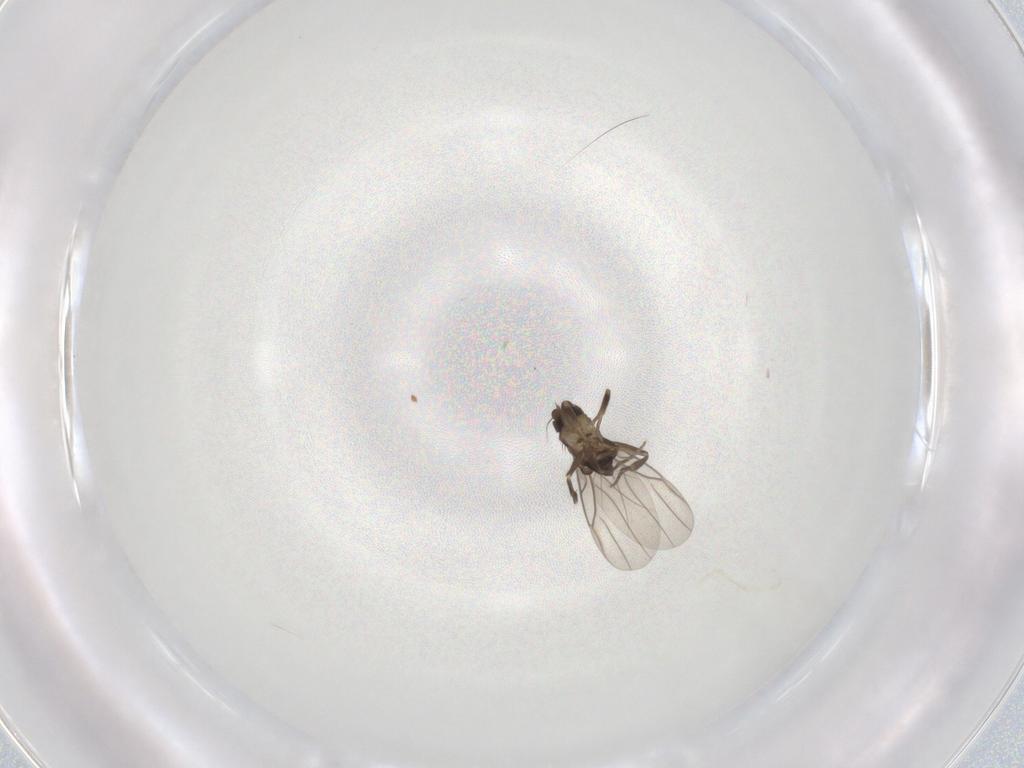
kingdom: Animalia
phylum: Arthropoda
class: Insecta
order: Diptera
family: Phoridae
